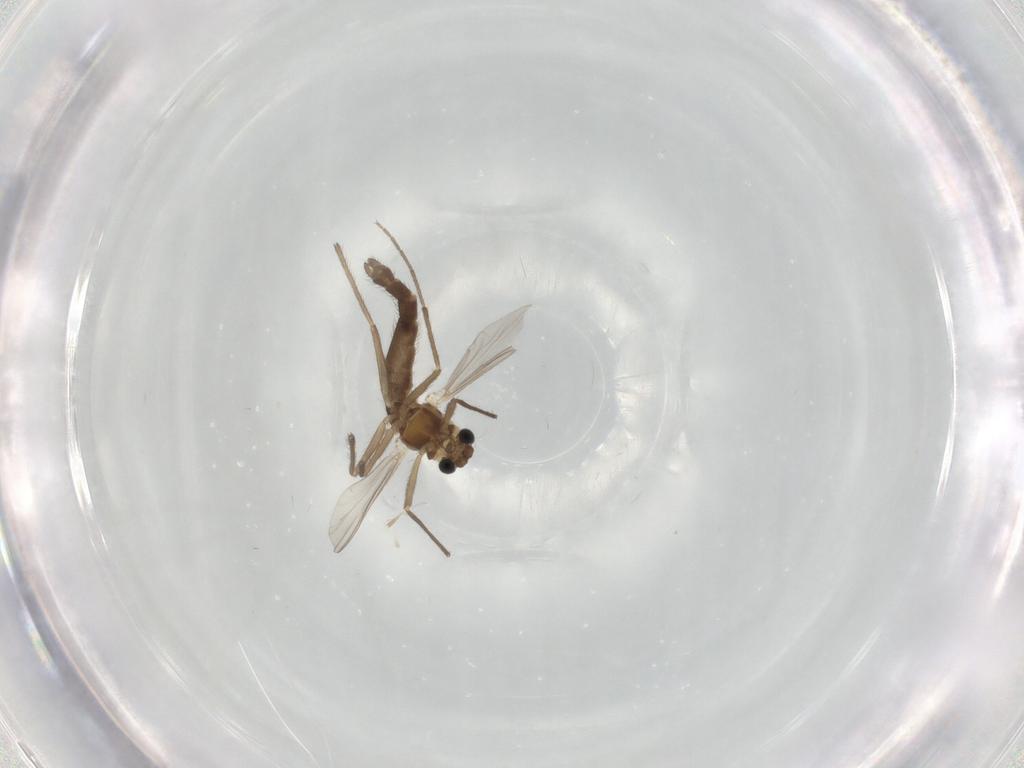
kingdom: Animalia
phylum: Arthropoda
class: Insecta
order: Diptera
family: Chironomidae
